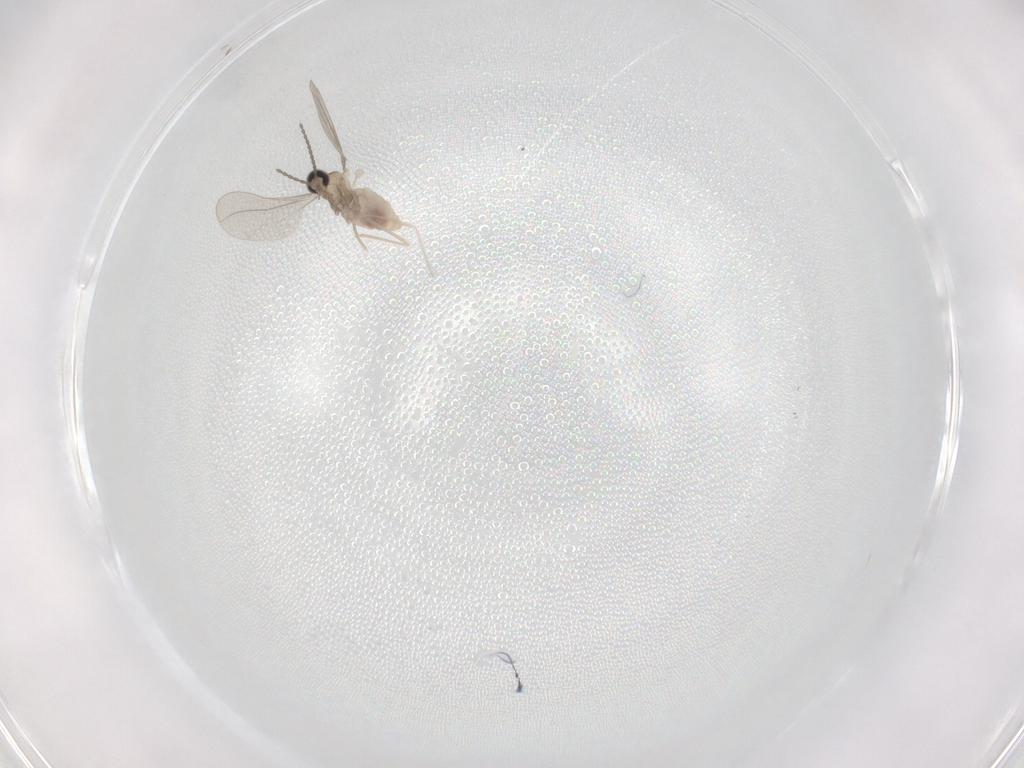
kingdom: Animalia
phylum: Arthropoda
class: Insecta
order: Diptera
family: Cecidomyiidae
